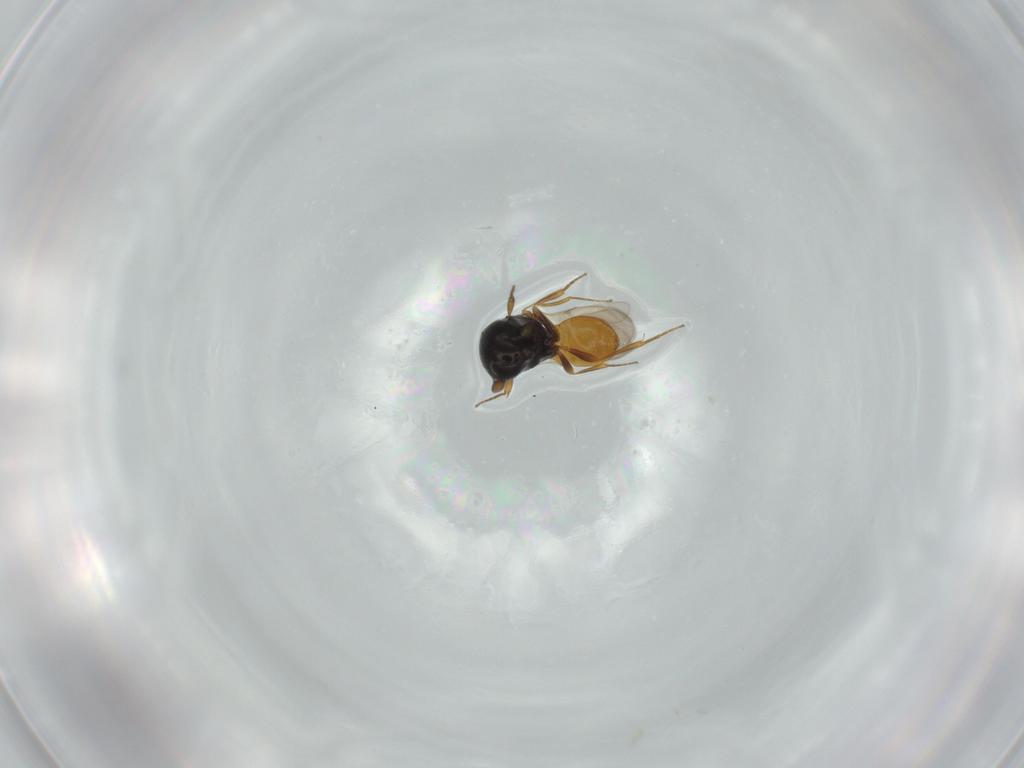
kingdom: Animalia
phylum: Arthropoda
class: Insecta
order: Hymenoptera
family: Scelionidae
